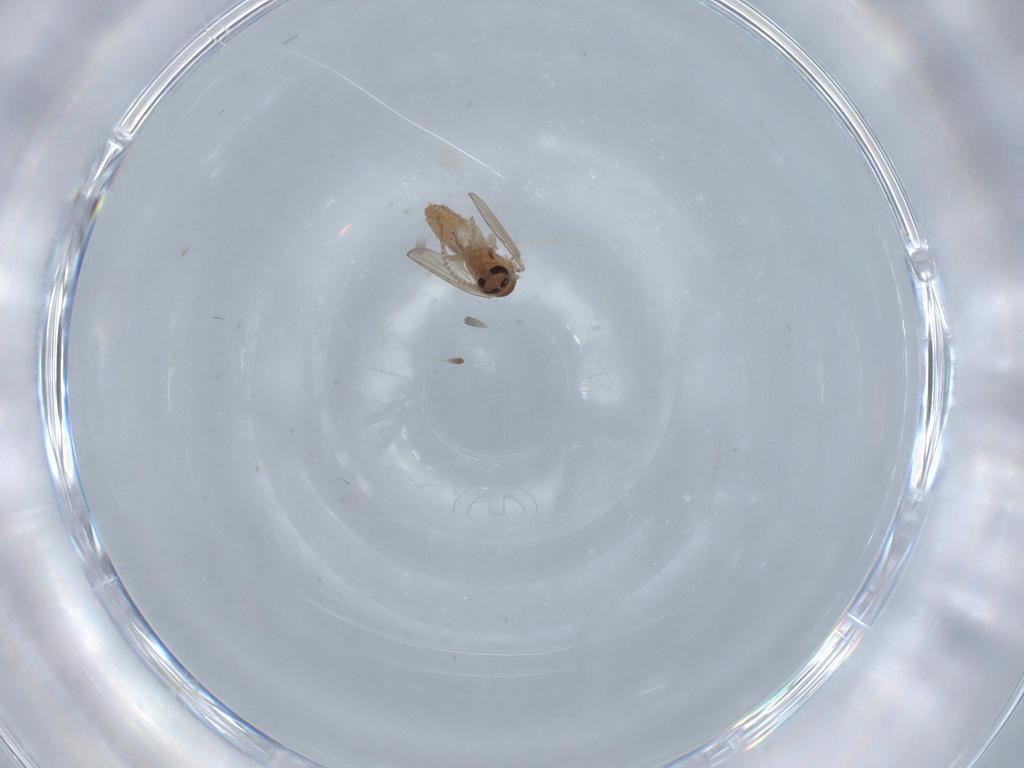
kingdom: Animalia
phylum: Arthropoda
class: Insecta
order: Diptera
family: Psychodidae
